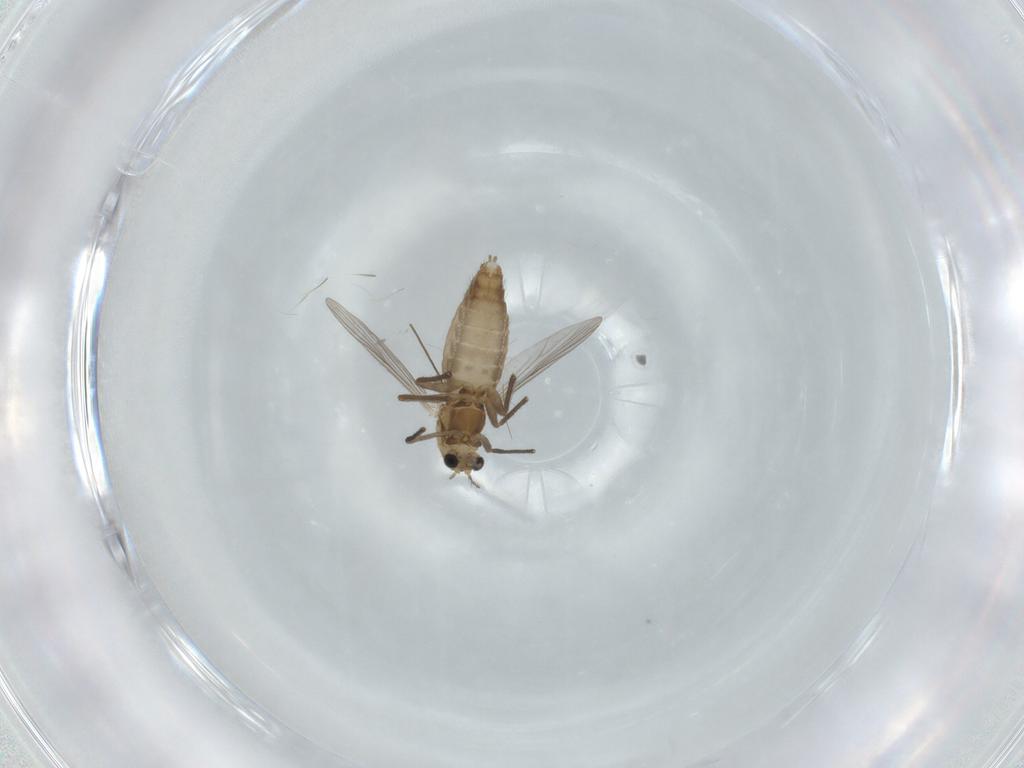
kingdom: Animalia
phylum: Arthropoda
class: Insecta
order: Diptera
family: Chironomidae
